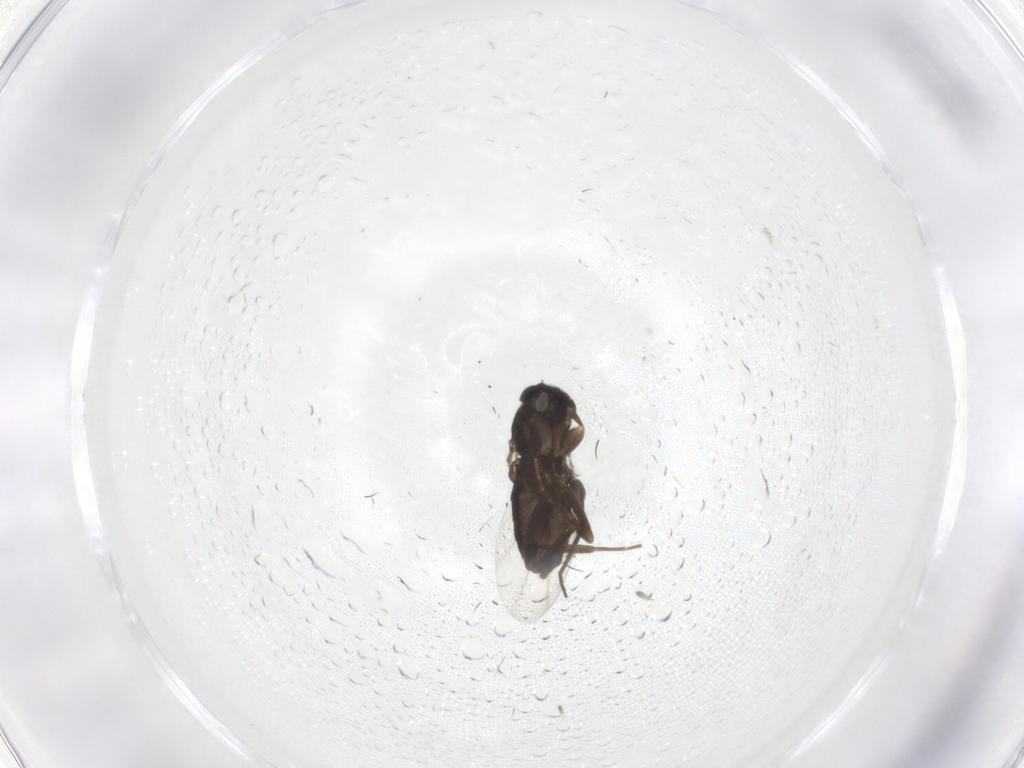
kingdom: Animalia
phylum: Arthropoda
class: Insecta
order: Diptera
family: Phoridae
